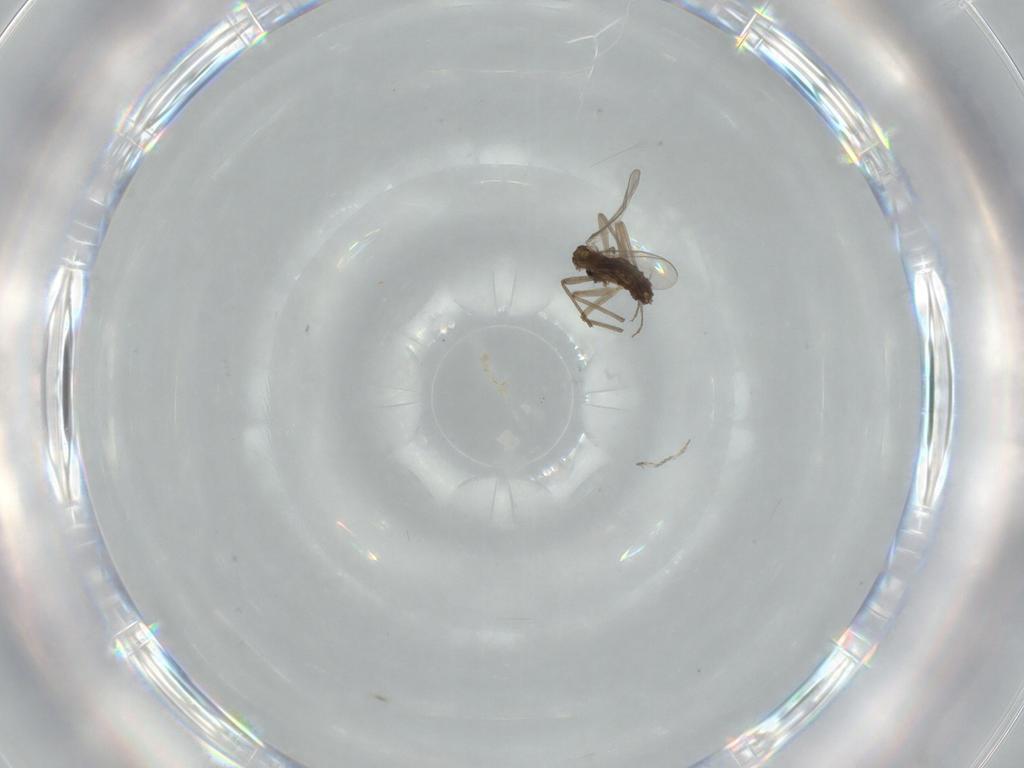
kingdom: Animalia
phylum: Arthropoda
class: Insecta
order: Diptera
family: Chironomidae
